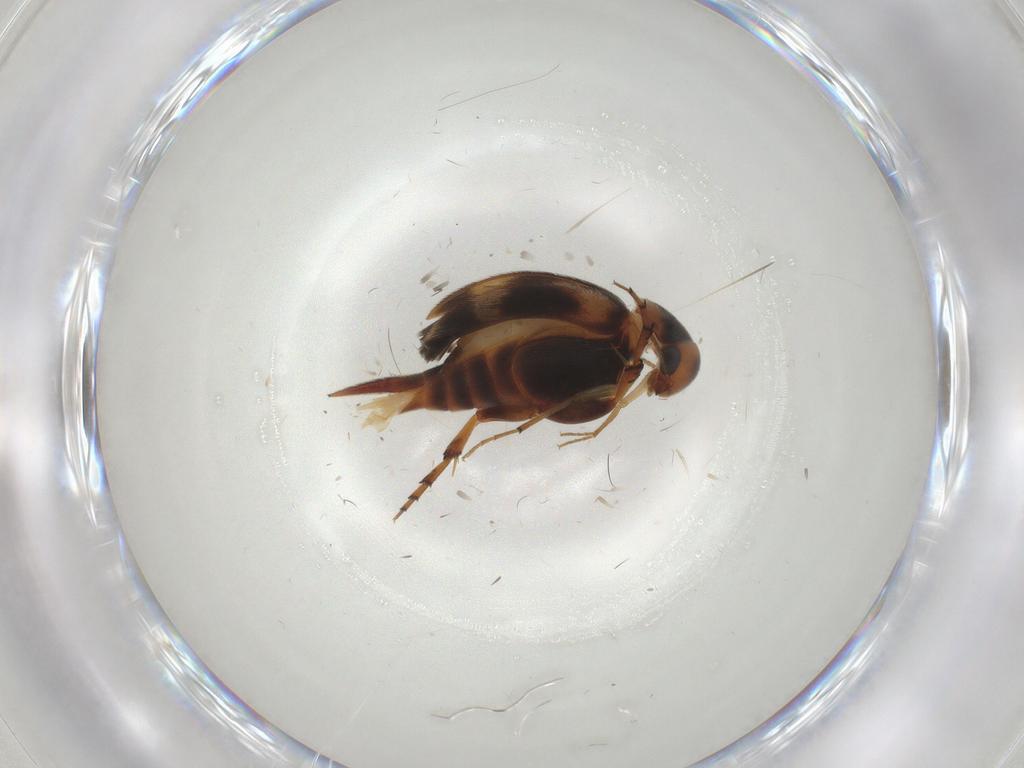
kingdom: Animalia
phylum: Arthropoda
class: Insecta
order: Coleoptera
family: Mordellidae
